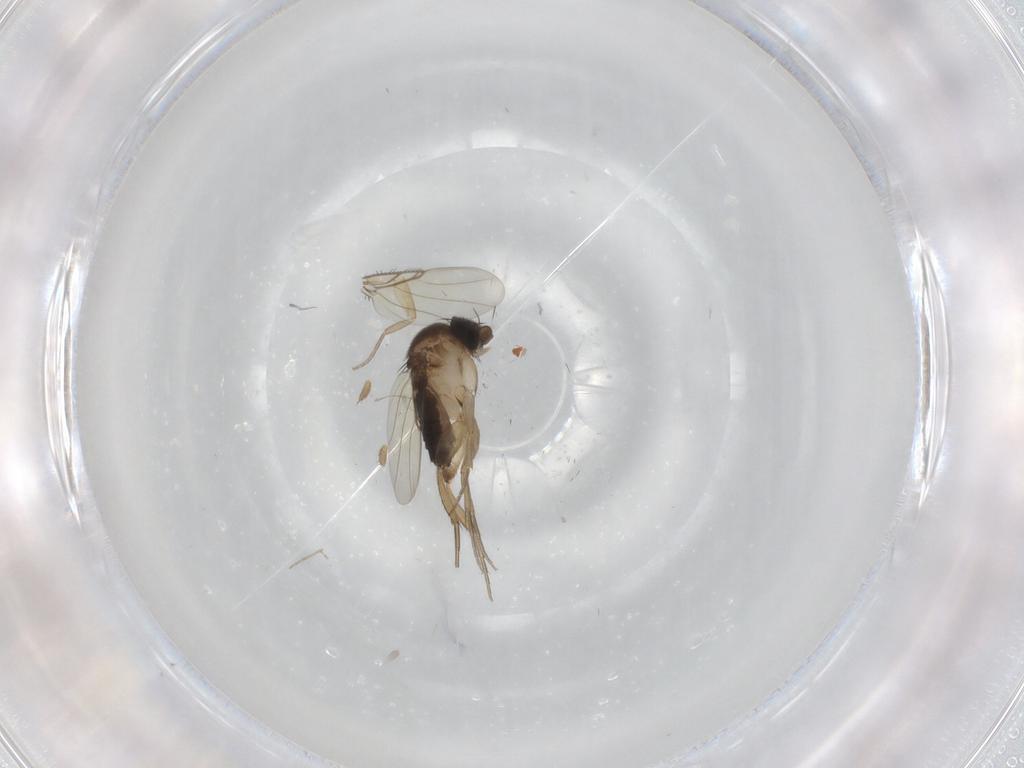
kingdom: Animalia
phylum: Arthropoda
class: Insecta
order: Diptera
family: Phoridae
